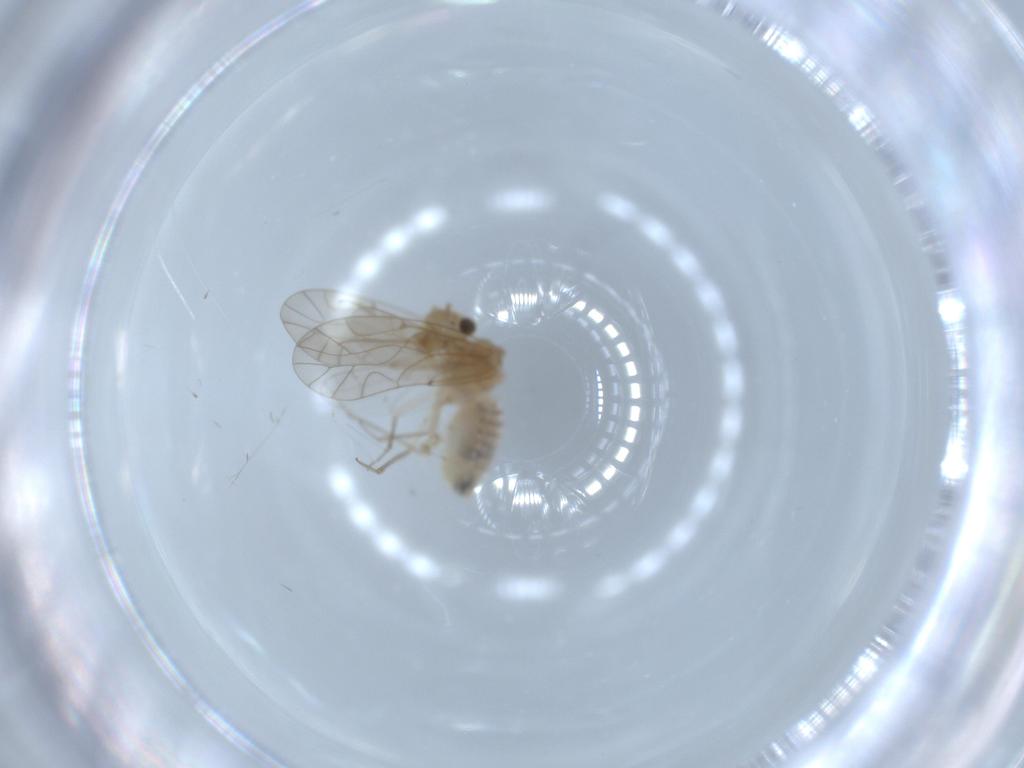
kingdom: Animalia
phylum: Arthropoda
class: Insecta
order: Psocodea
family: Lachesillidae
